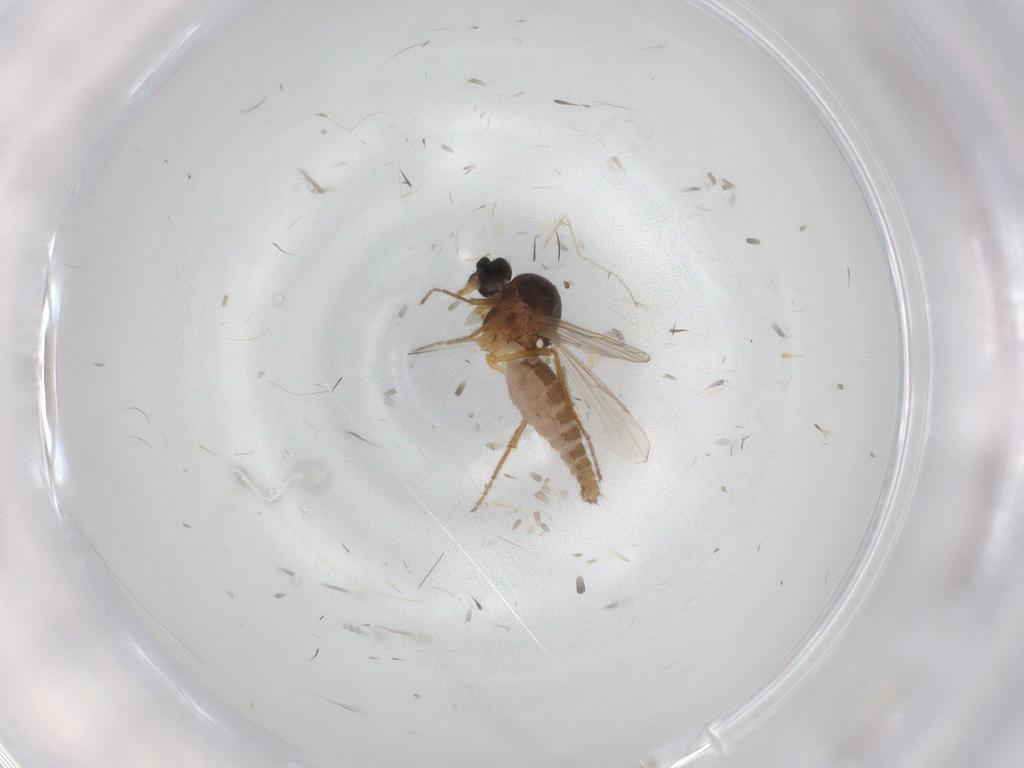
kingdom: Animalia
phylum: Arthropoda
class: Insecta
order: Diptera
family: Ceratopogonidae
